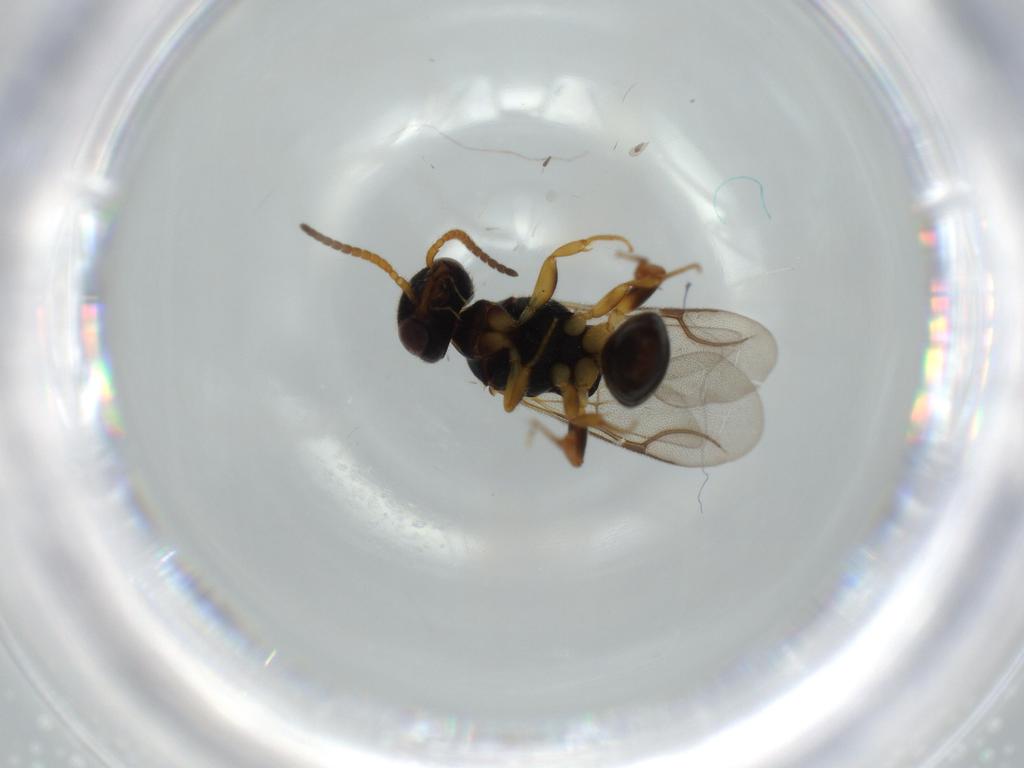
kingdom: Animalia
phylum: Arthropoda
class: Insecta
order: Hymenoptera
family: Bethylidae
